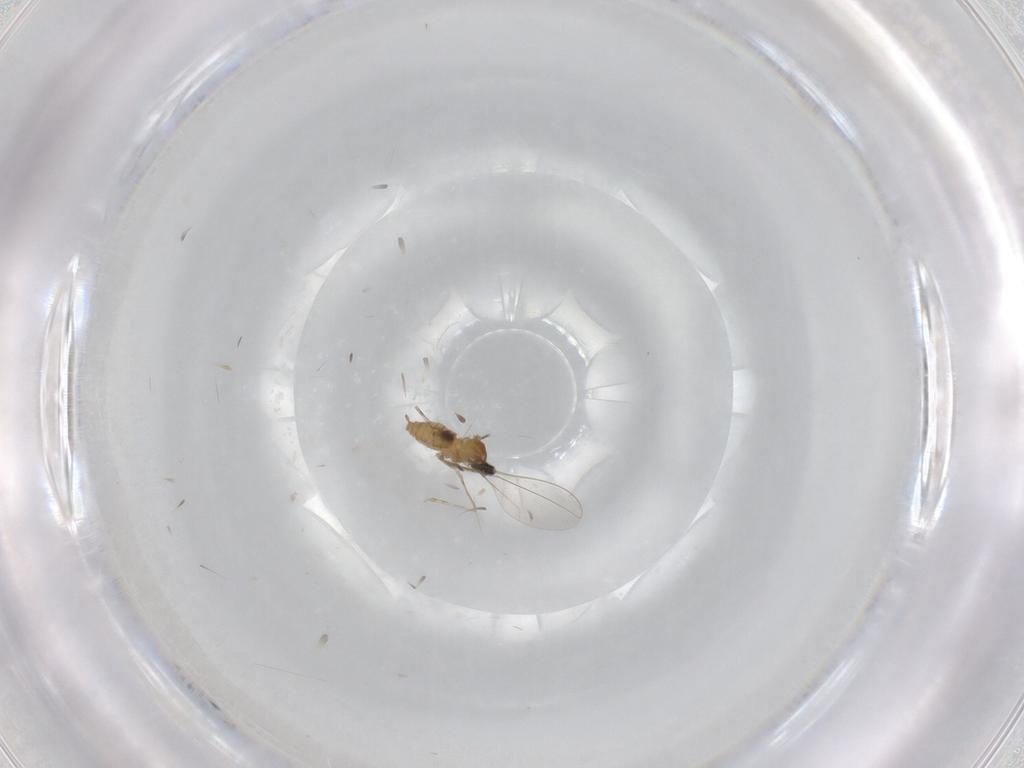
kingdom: Animalia
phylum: Arthropoda
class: Insecta
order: Diptera
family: Cecidomyiidae
